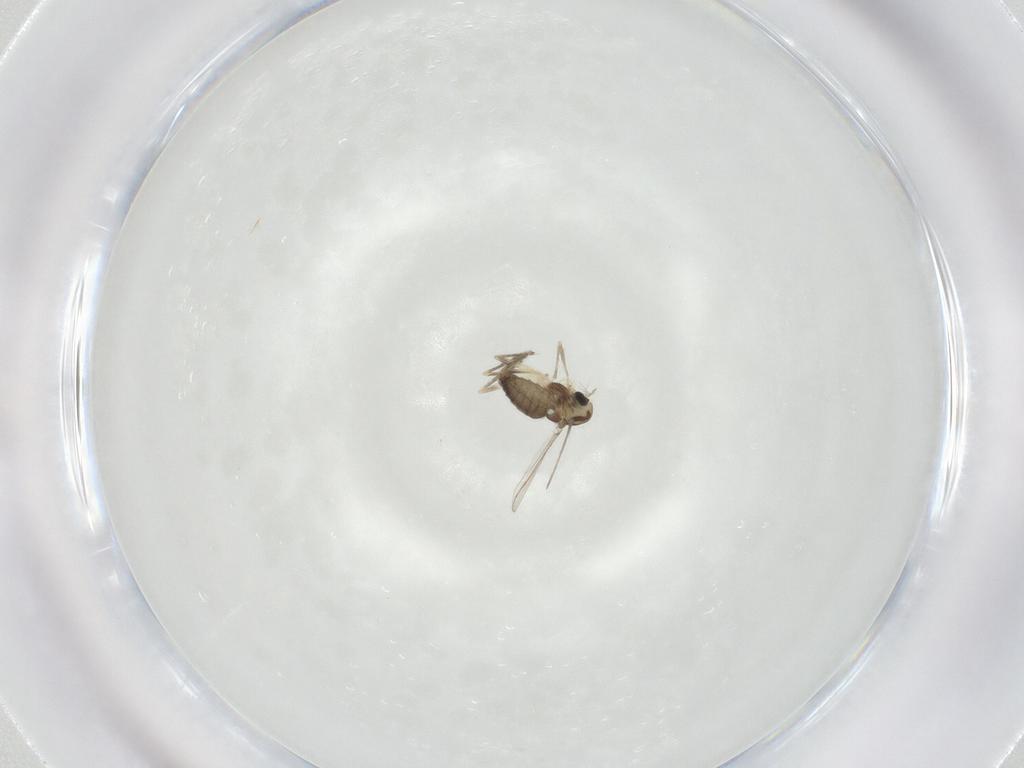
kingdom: Animalia
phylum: Arthropoda
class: Insecta
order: Diptera
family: Chironomidae
